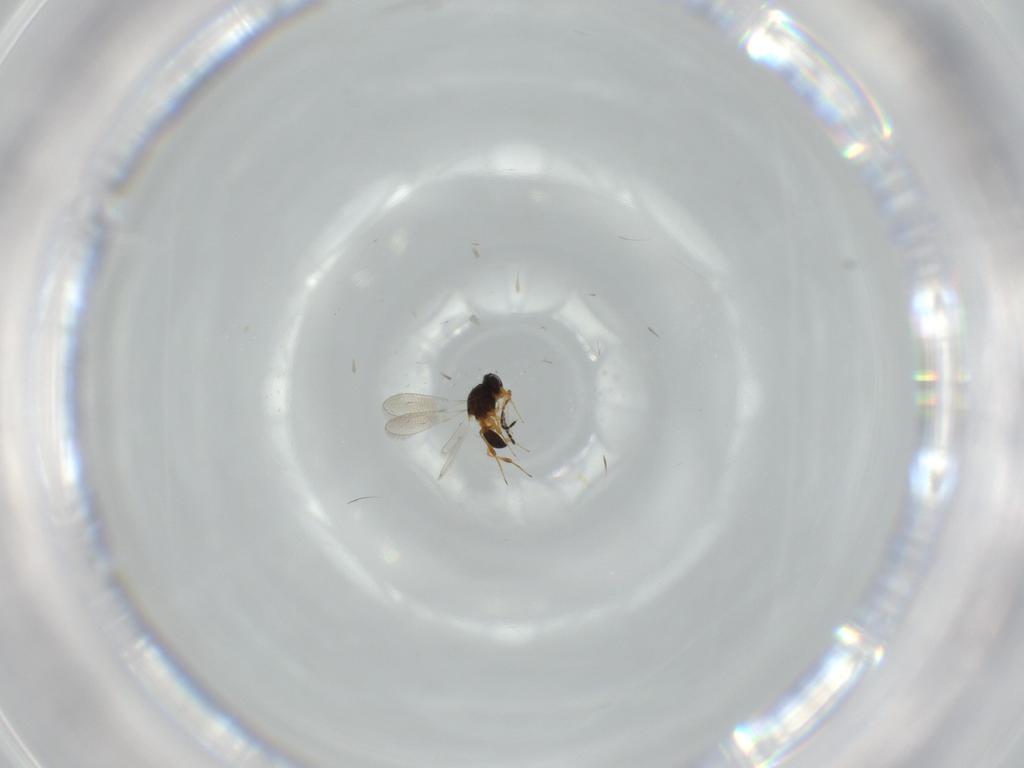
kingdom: Animalia
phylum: Arthropoda
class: Insecta
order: Hymenoptera
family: Platygastridae
